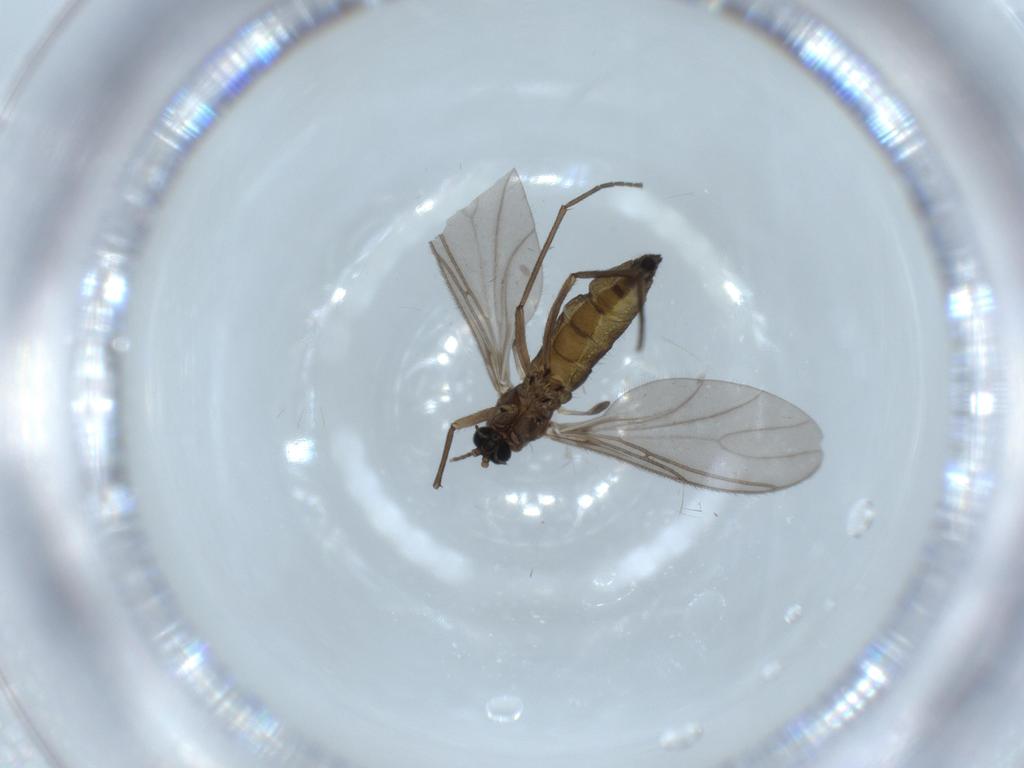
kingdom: Animalia
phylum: Arthropoda
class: Insecta
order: Diptera
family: Sciaridae
